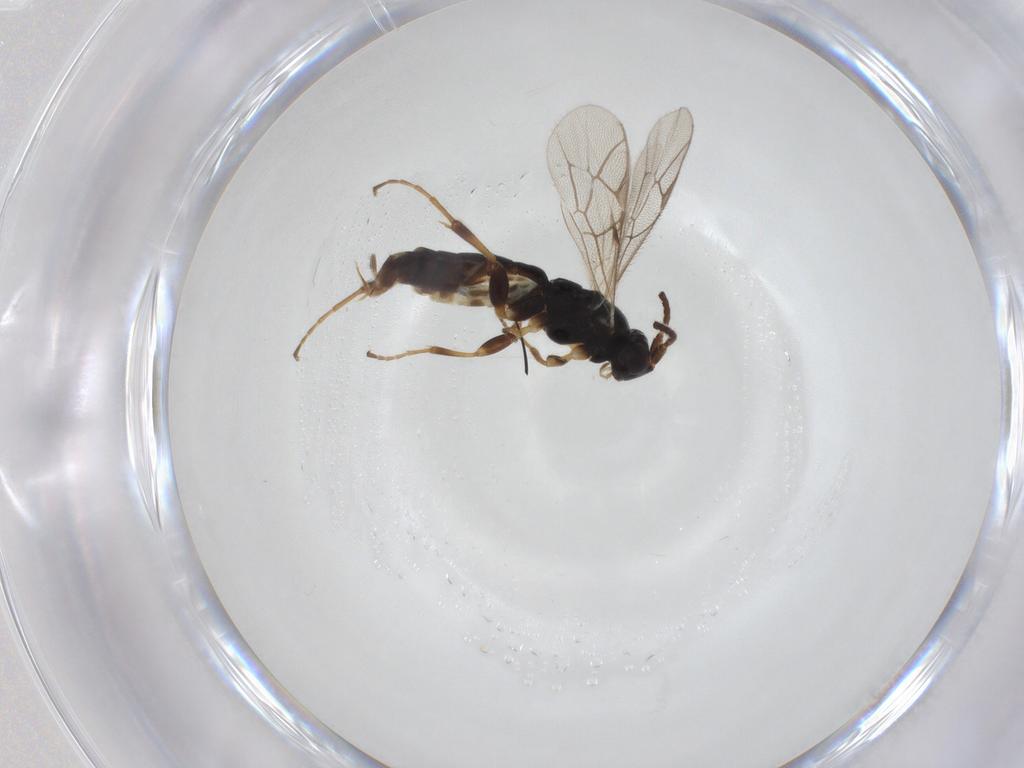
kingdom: Animalia
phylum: Arthropoda
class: Insecta
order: Hymenoptera
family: Ichneumonidae
